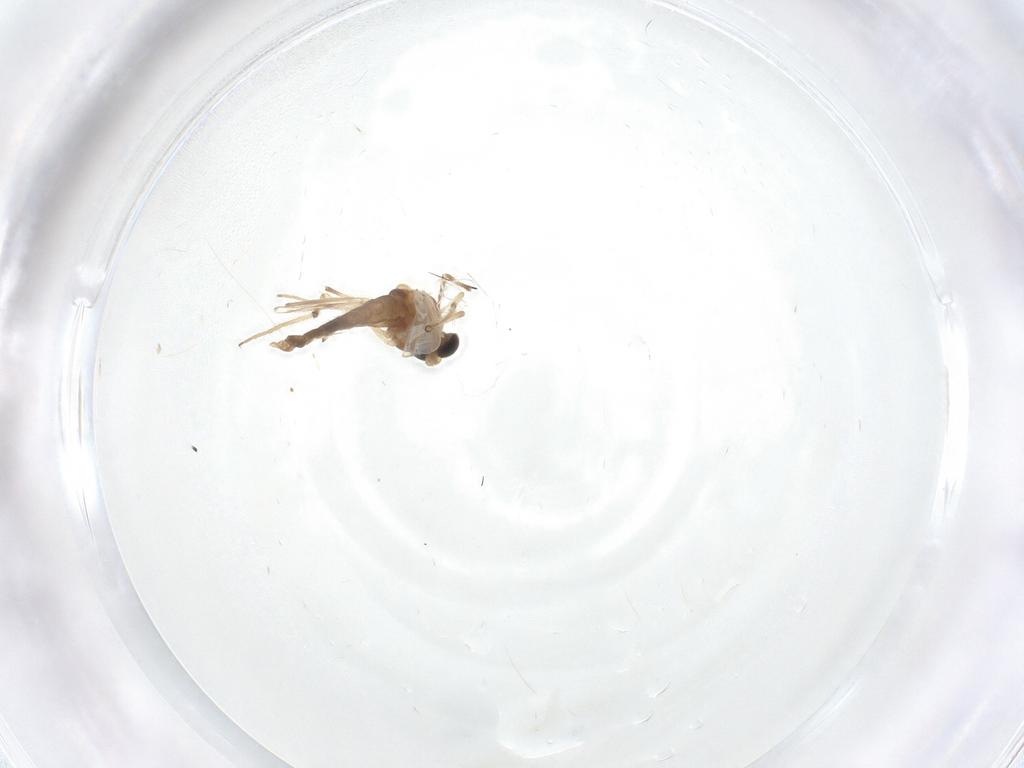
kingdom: Animalia
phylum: Arthropoda
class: Insecta
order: Diptera
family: Chironomidae
